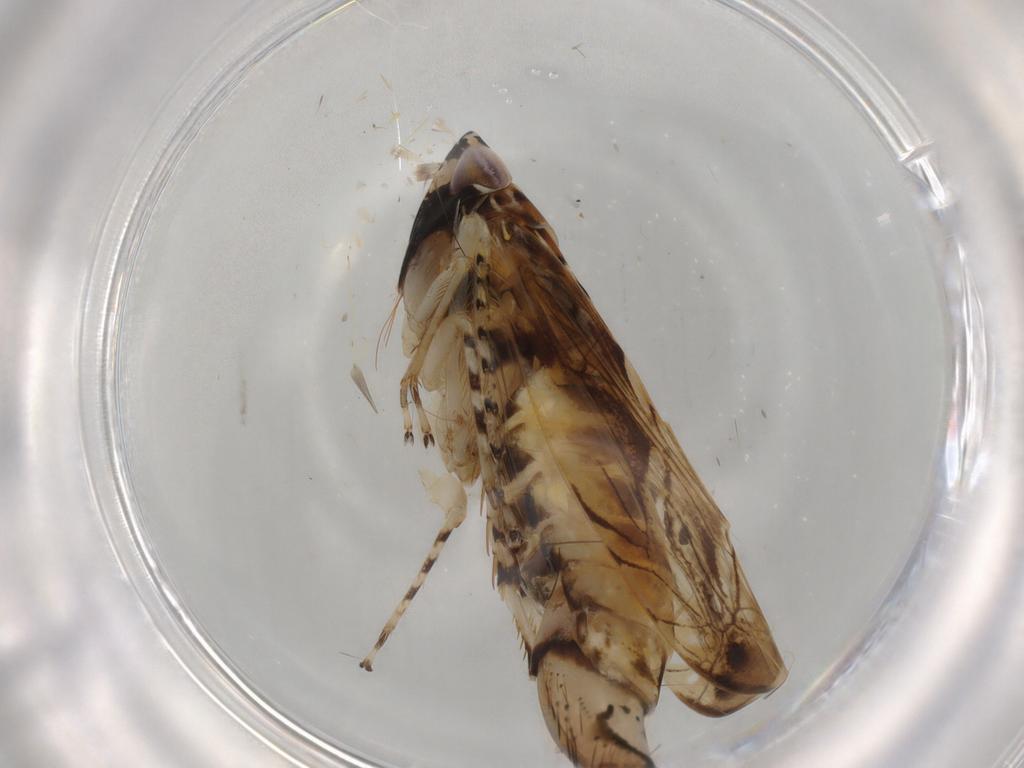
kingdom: Animalia
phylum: Arthropoda
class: Insecta
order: Hemiptera
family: Cicadellidae
